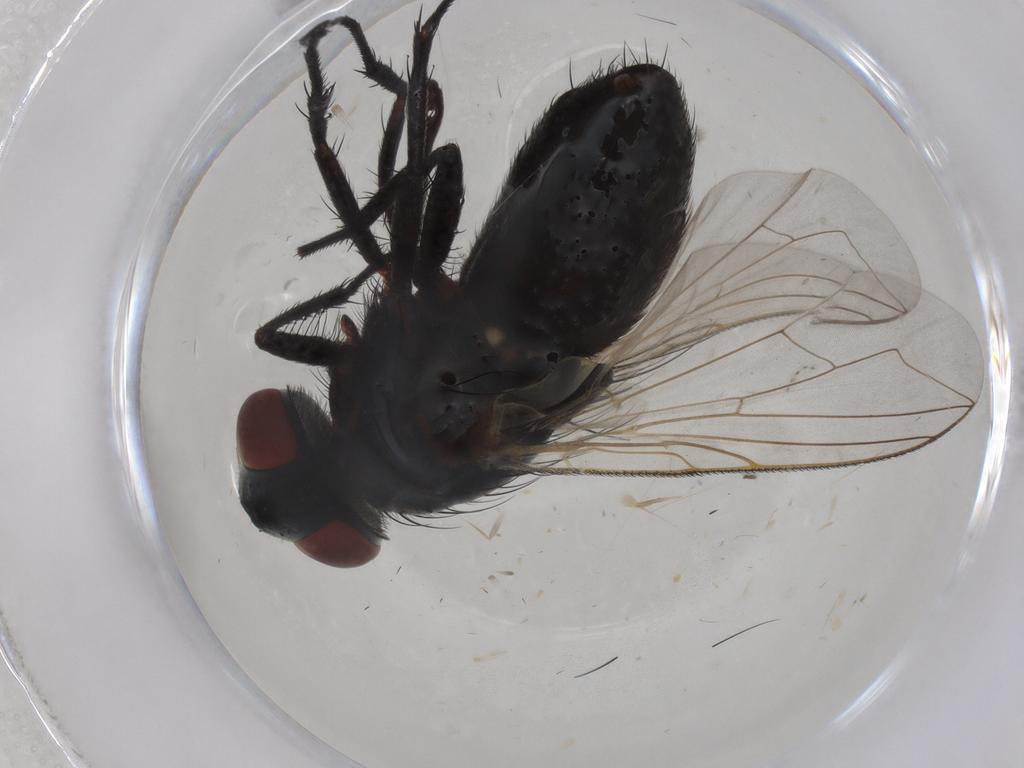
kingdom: Animalia
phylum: Arthropoda
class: Insecta
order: Diptera
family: Sarcophagidae
